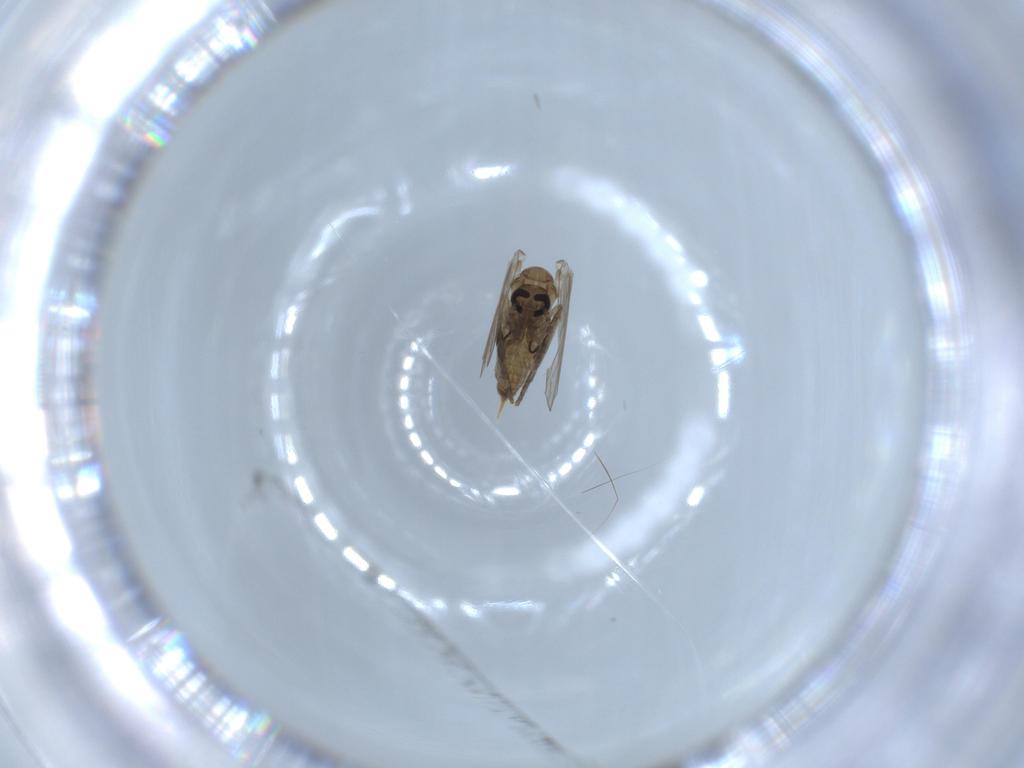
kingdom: Animalia
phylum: Arthropoda
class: Insecta
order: Diptera
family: Psychodidae
